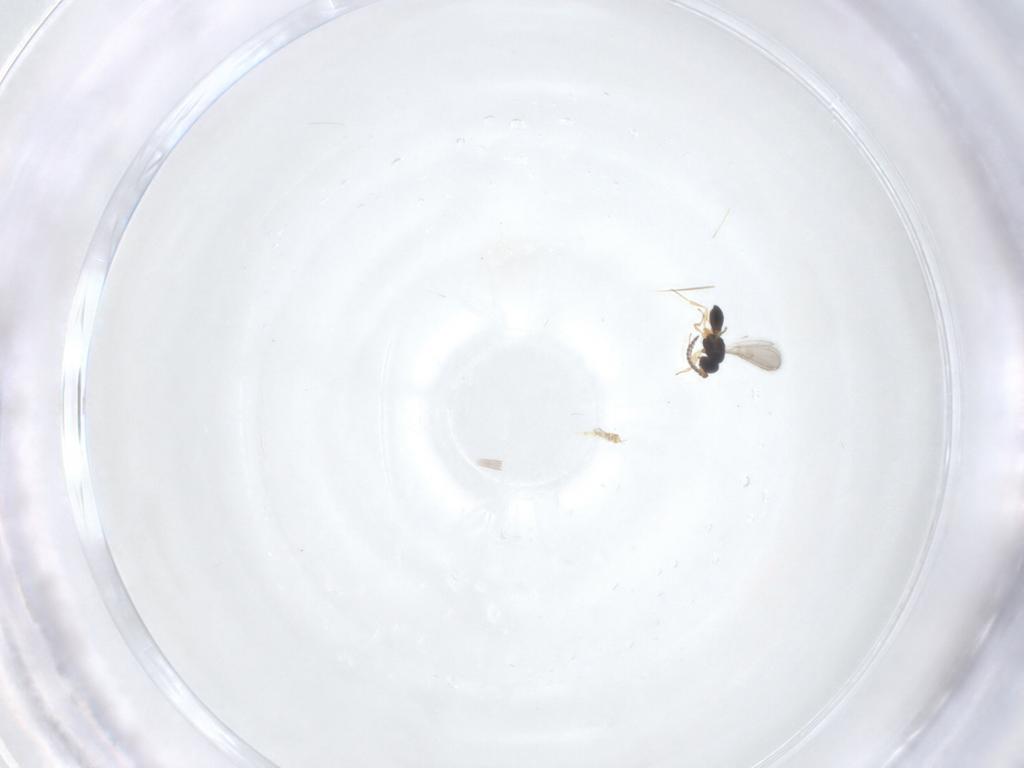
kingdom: Animalia
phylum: Arthropoda
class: Insecta
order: Hymenoptera
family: Scelionidae
